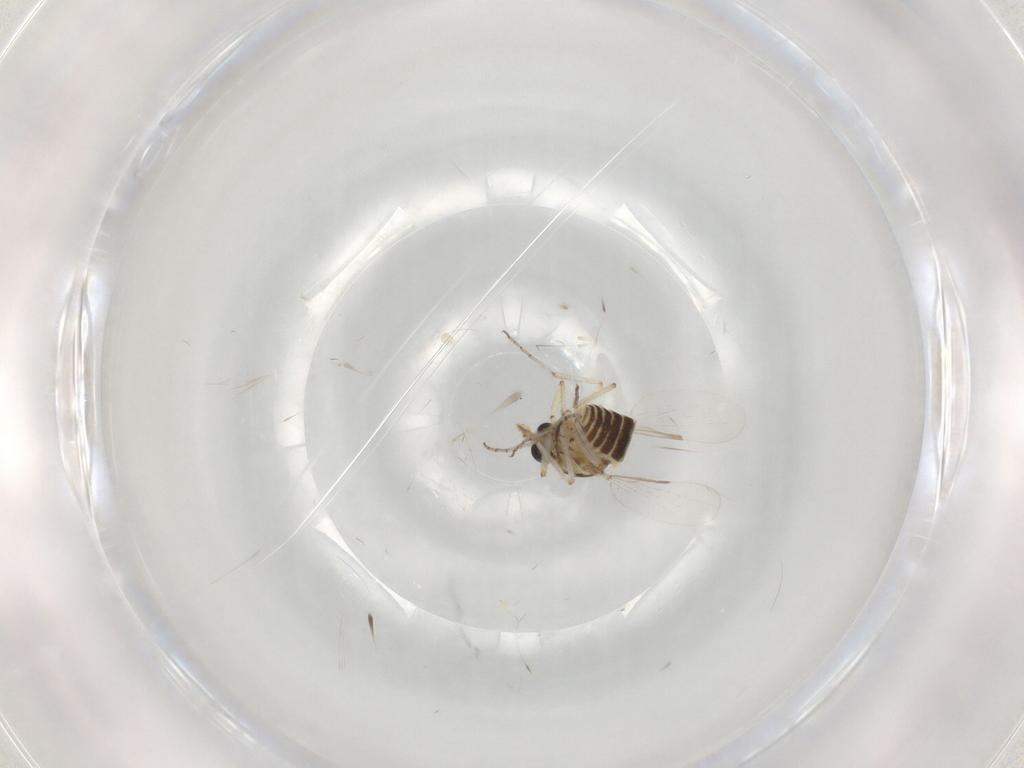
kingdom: Animalia
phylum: Arthropoda
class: Insecta
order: Diptera
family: Ceratopogonidae
